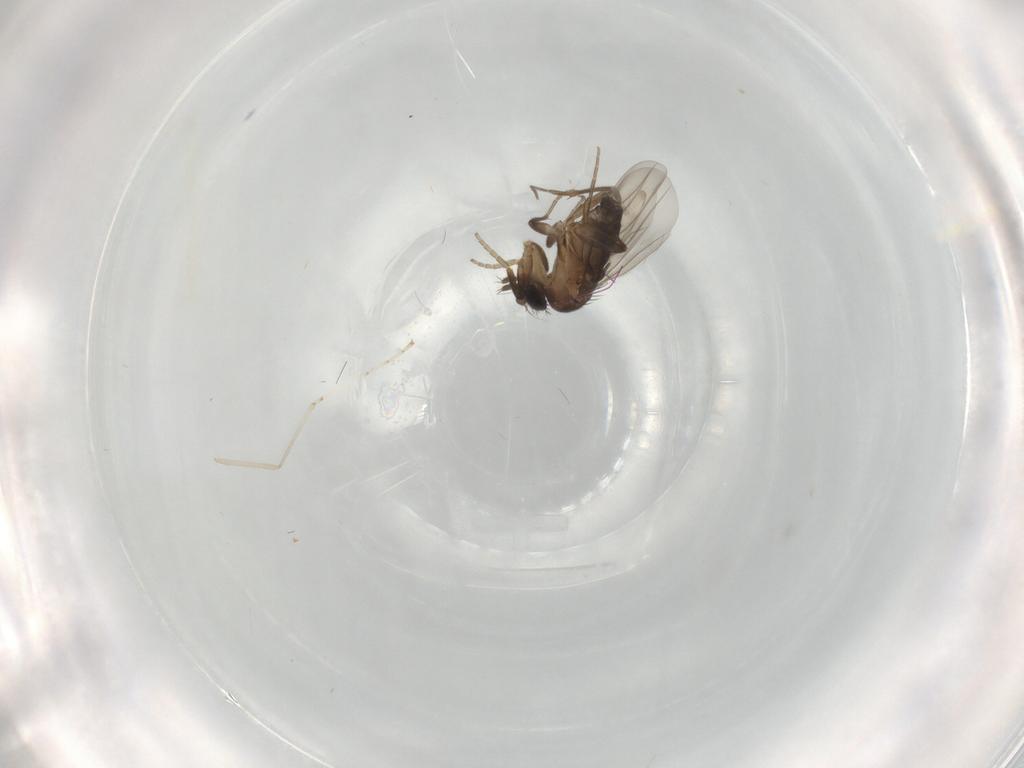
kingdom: Animalia
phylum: Arthropoda
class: Insecta
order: Diptera
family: Phoridae
